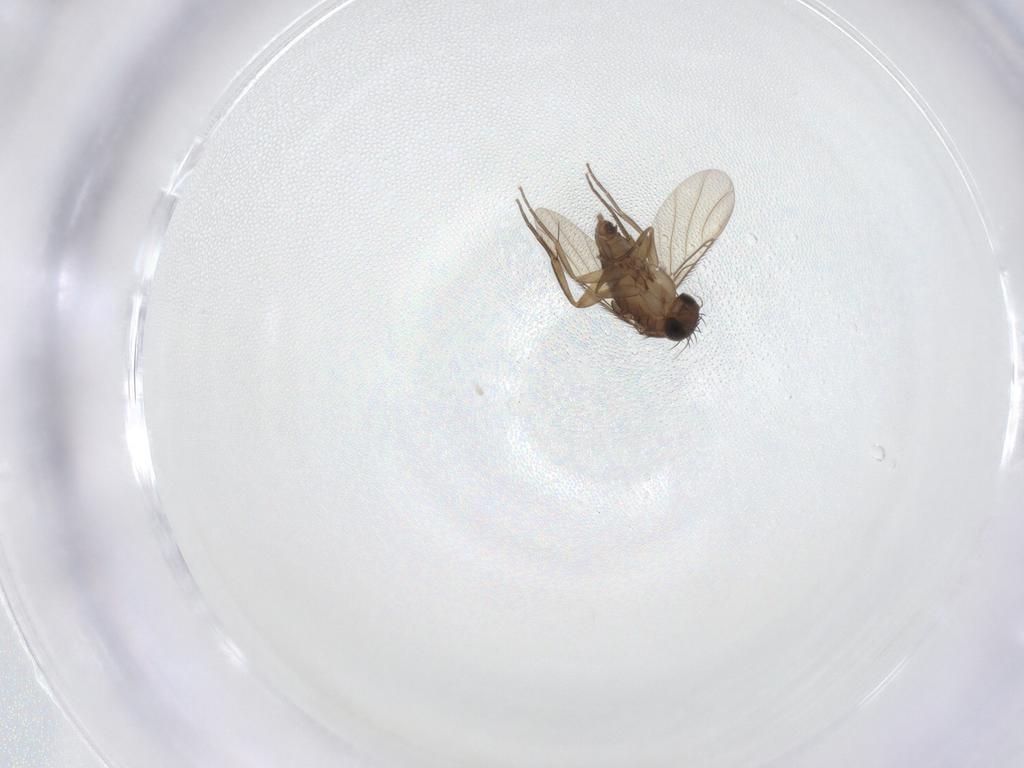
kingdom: Animalia
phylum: Arthropoda
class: Insecta
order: Diptera
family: Phoridae
